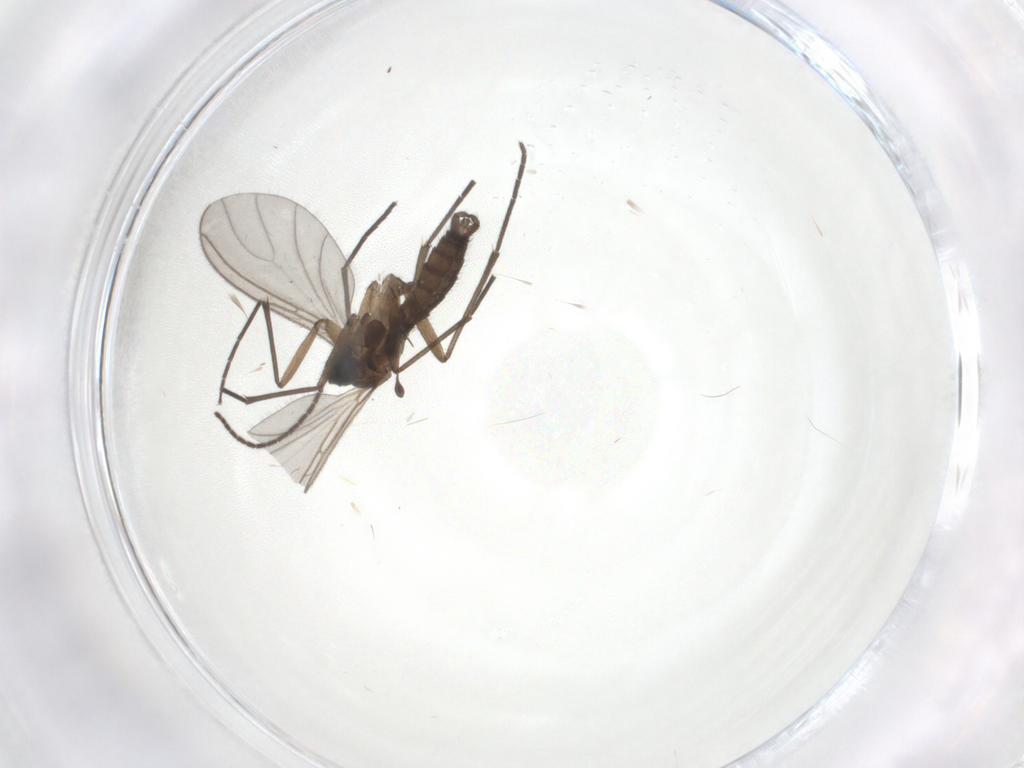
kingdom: Animalia
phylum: Arthropoda
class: Insecta
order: Diptera
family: Sciaridae
